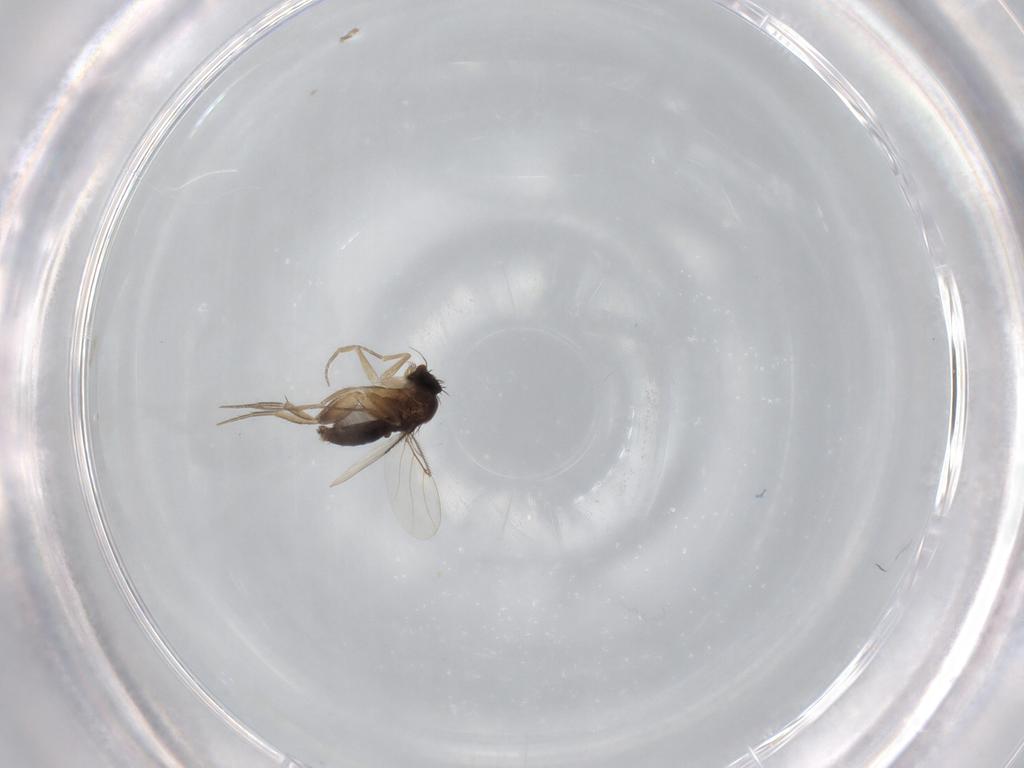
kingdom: Animalia
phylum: Arthropoda
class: Insecta
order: Diptera
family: Phoridae
